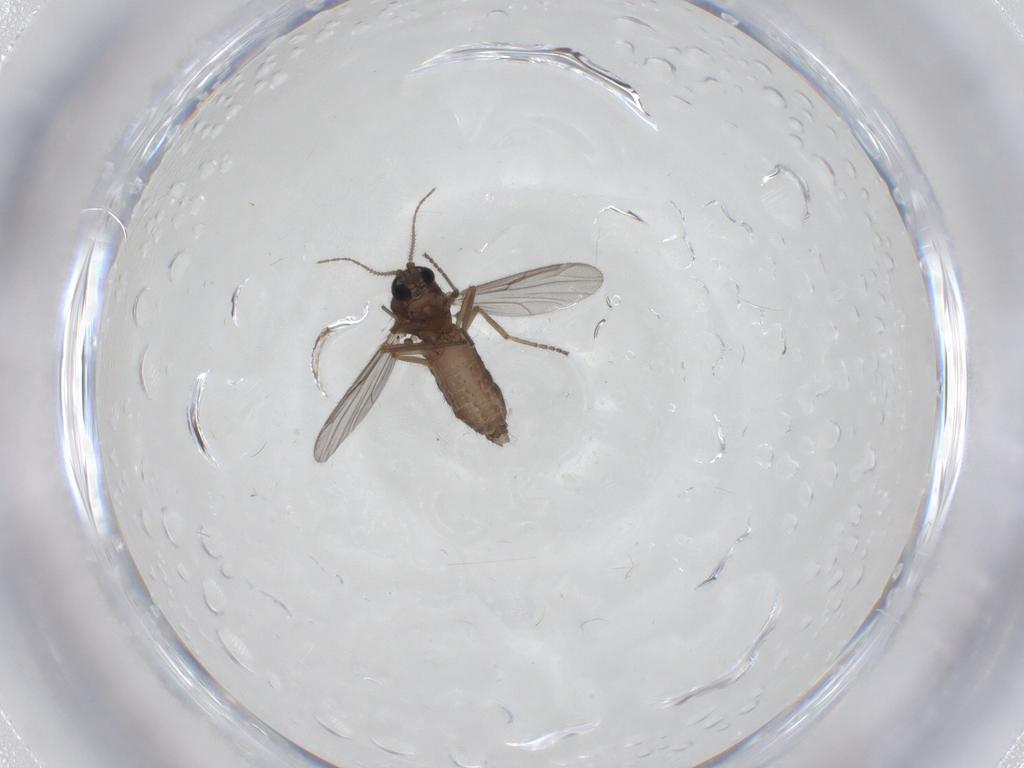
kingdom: Animalia
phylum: Arthropoda
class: Insecta
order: Diptera
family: Ceratopogonidae
